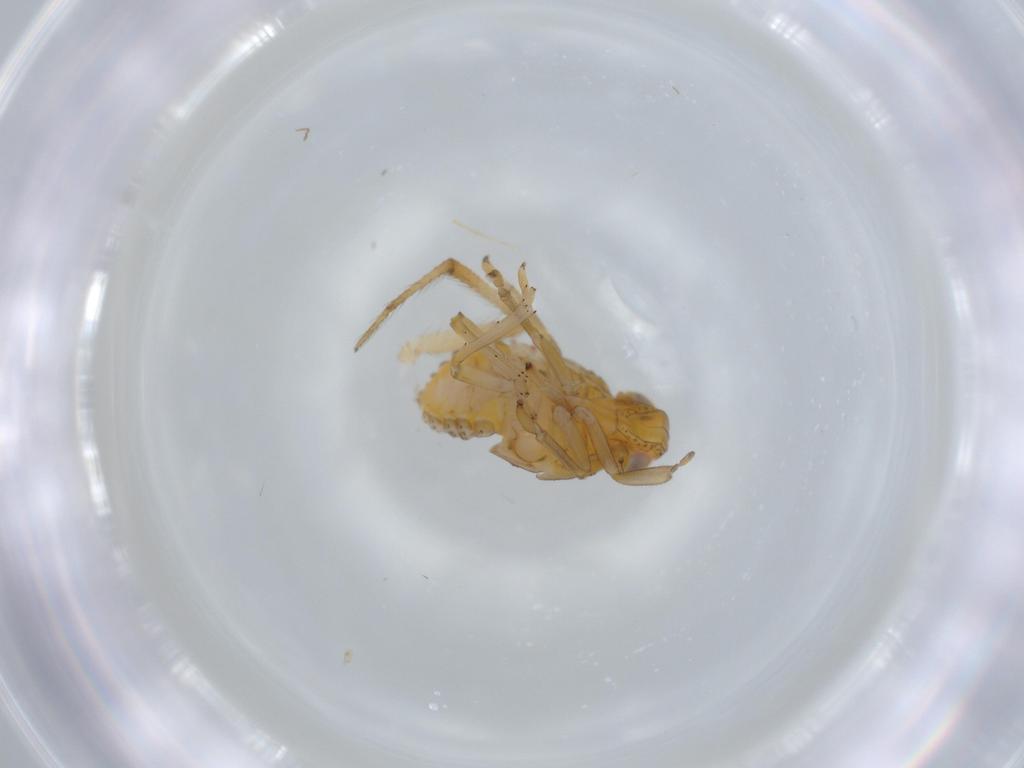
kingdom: Animalia
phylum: Arthropoda
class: Insecta
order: Hemiptera
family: Issidae
